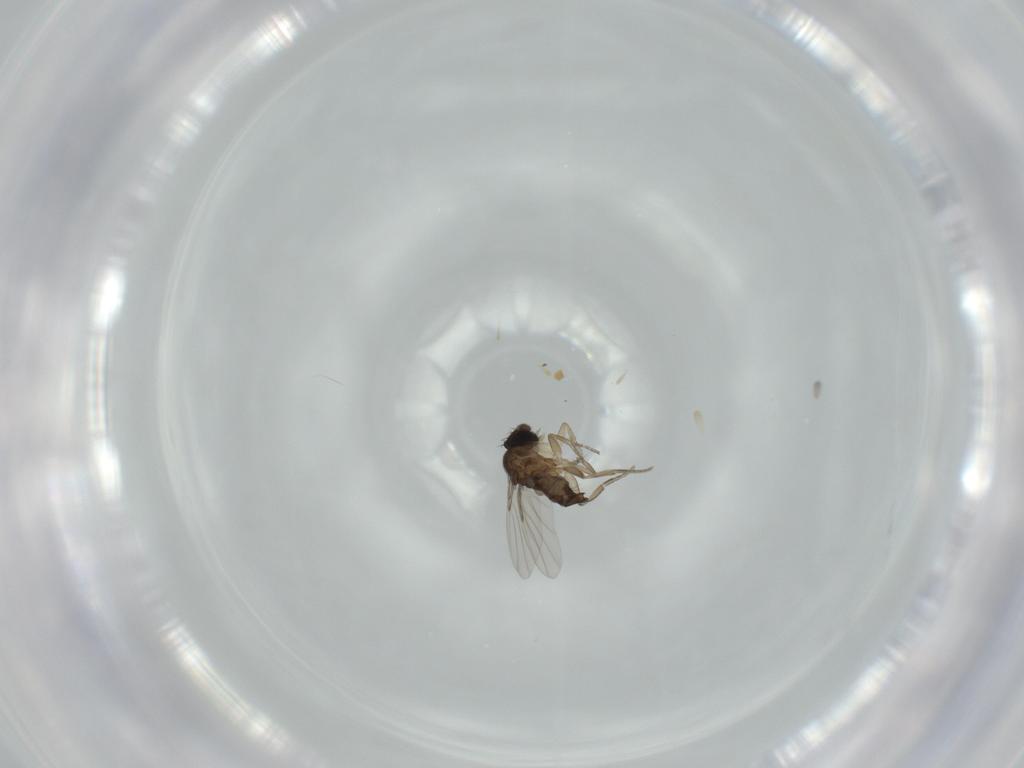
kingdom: Animalia
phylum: Arthropoda
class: Insecta
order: Diptera
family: Phoridae
